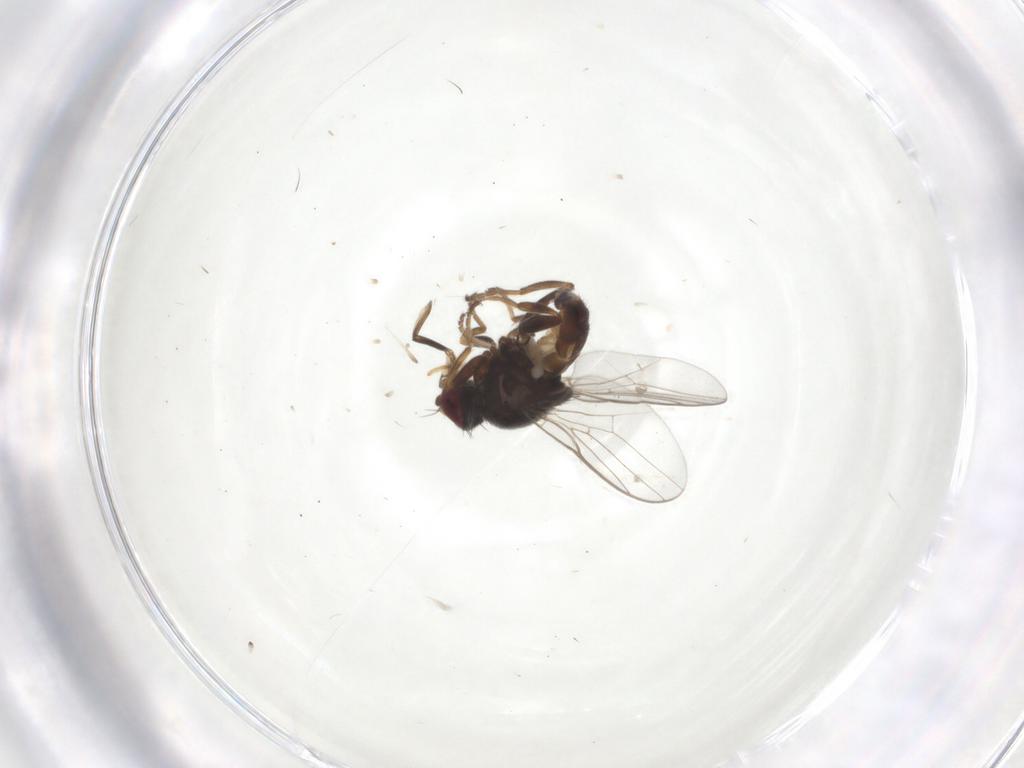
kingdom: Animalia
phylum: Arthropoda
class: Insecta
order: Diptera
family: Chloropidae
